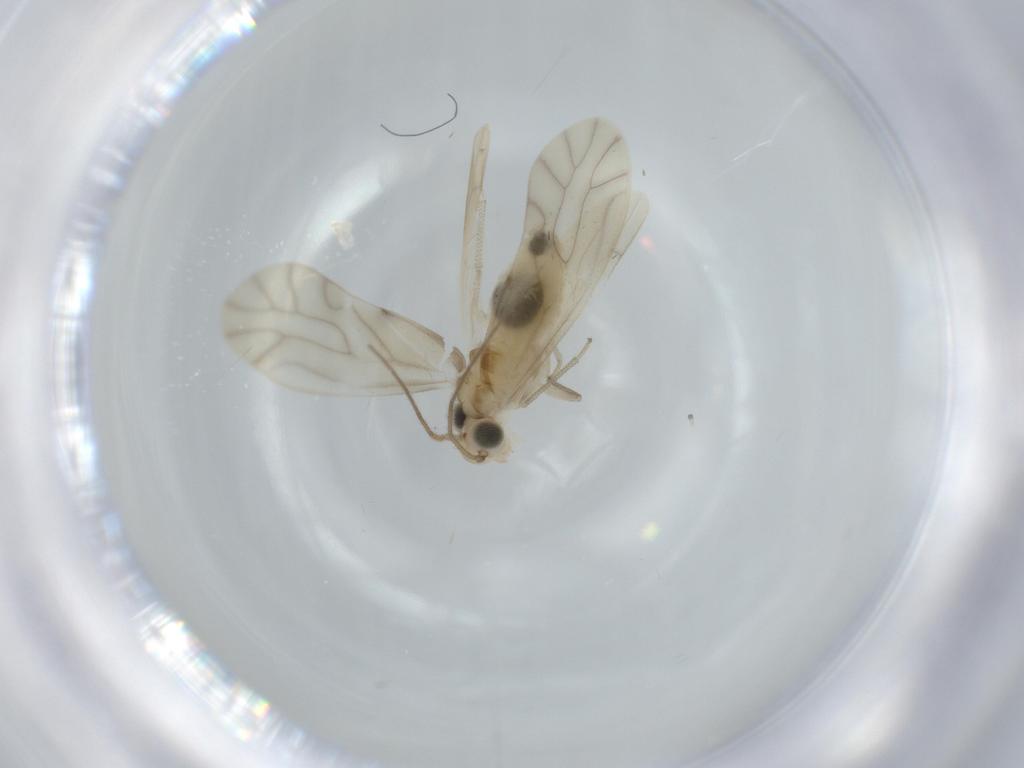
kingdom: Animalia
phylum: Arthropoda
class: Insecta
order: Psocodea
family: Caeciliusidae
